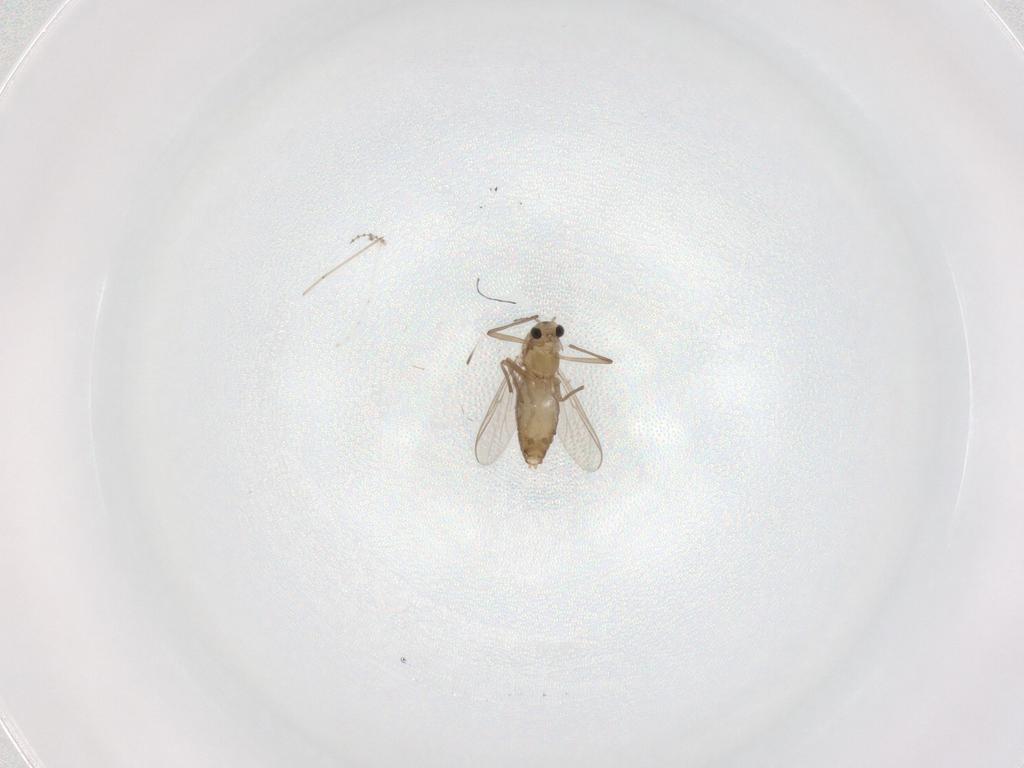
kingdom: Animalia
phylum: Arthropoda
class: Insecta
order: Diptera
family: Chironomidae
